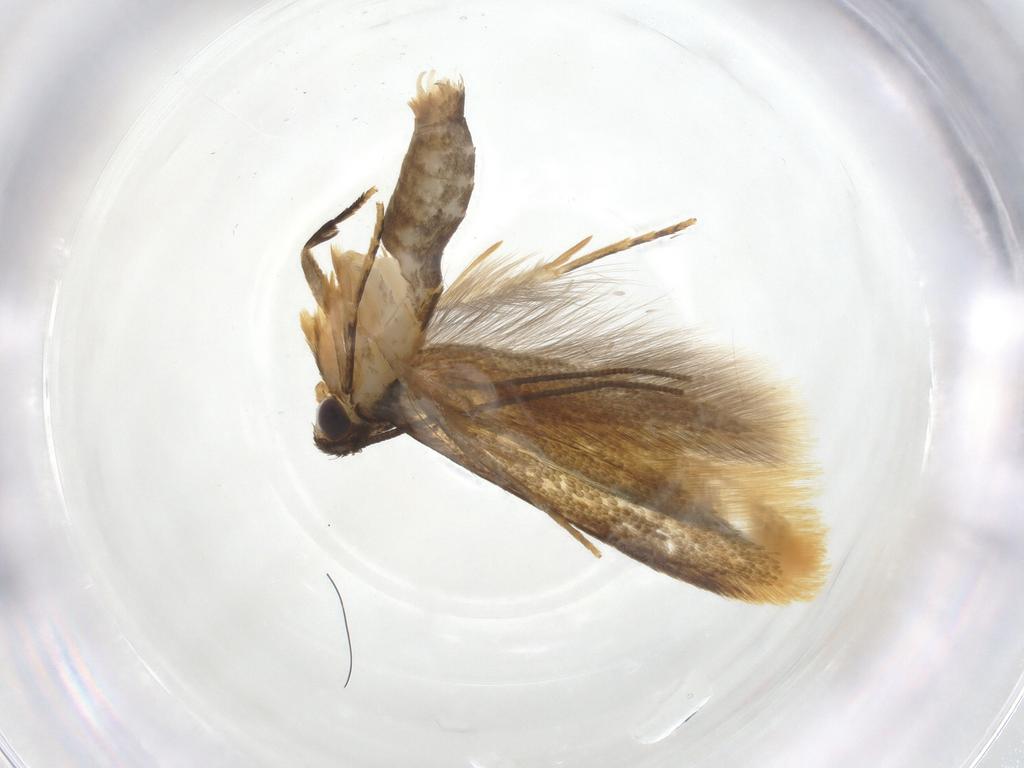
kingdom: Animalia
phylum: Arthropoda
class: Insecta
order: Lepidoptera
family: Tineidae
